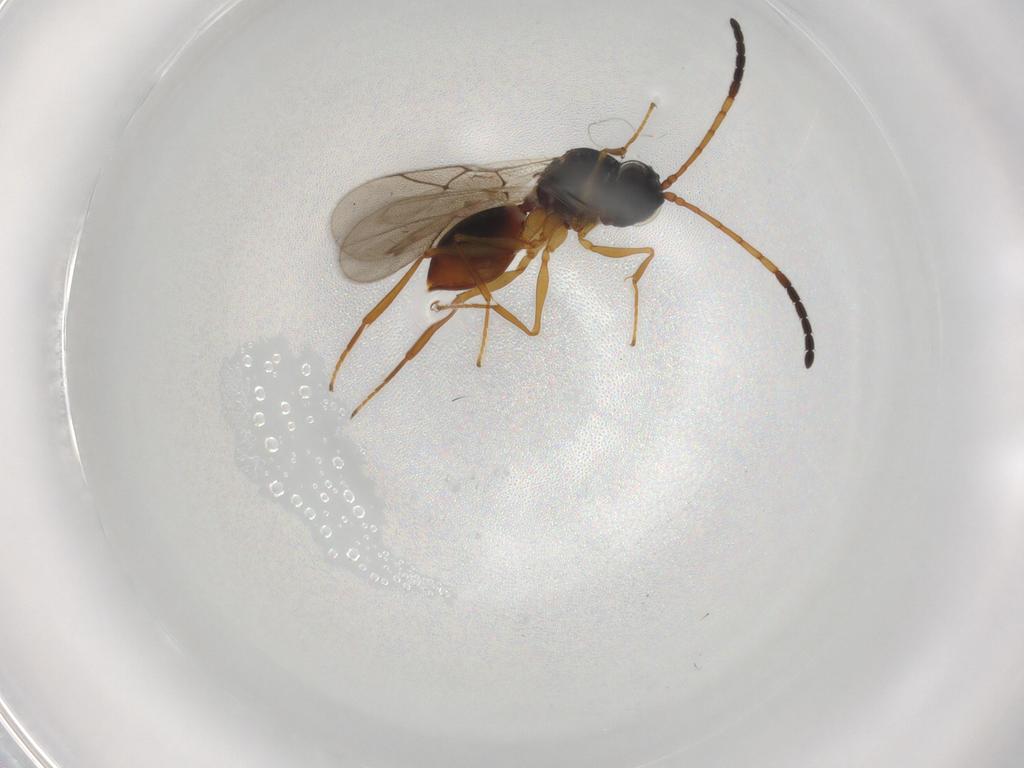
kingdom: Animalia
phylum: Arthropoda
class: Insecta
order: Hymenoptera
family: Figitidae
